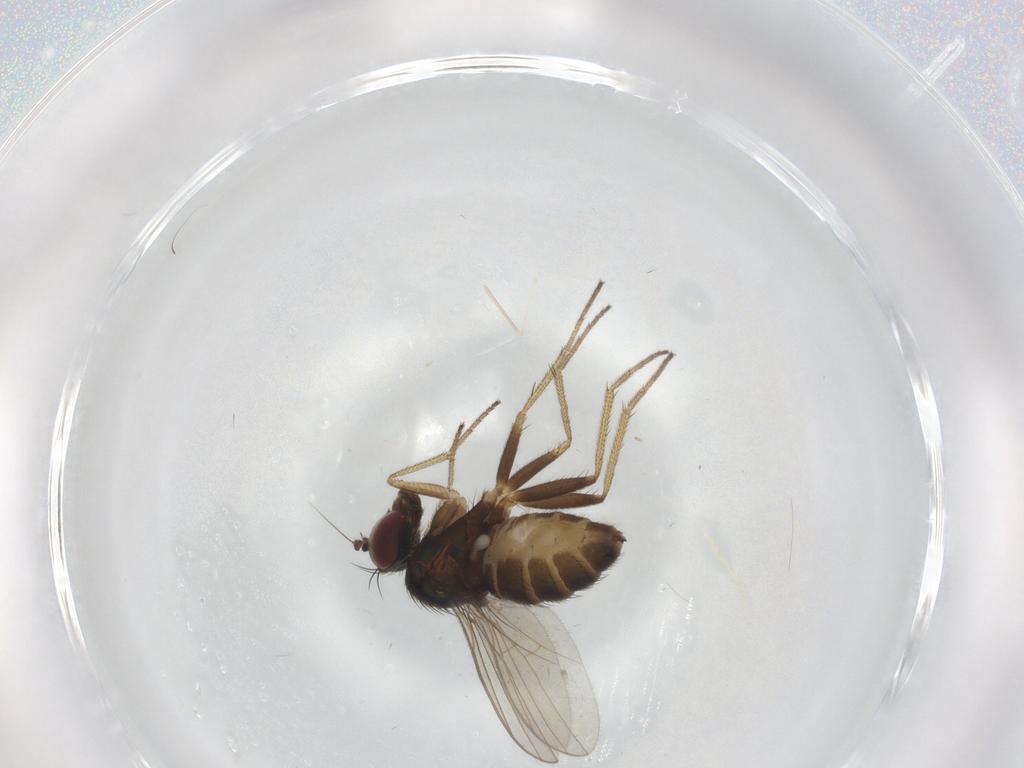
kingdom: Animalia
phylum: Arthropoda
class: Insecta
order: Diptera
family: Dolichopodidae
